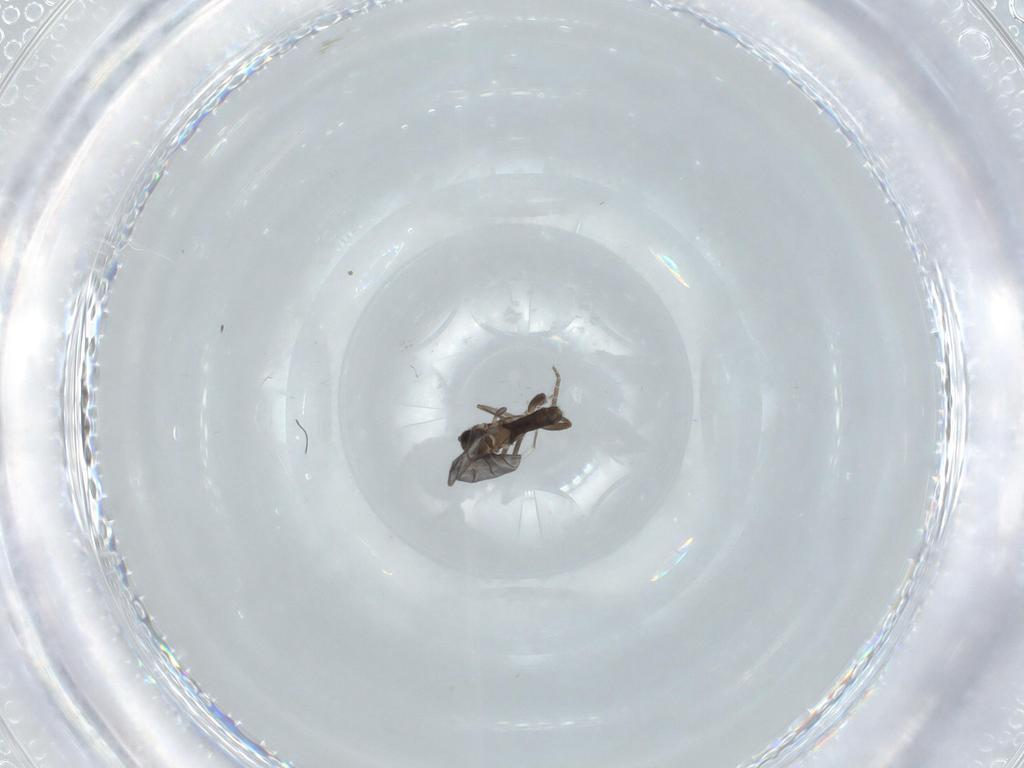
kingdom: Animalia
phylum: Arthropoda
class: Insecta
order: Diptera
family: Phoridae
